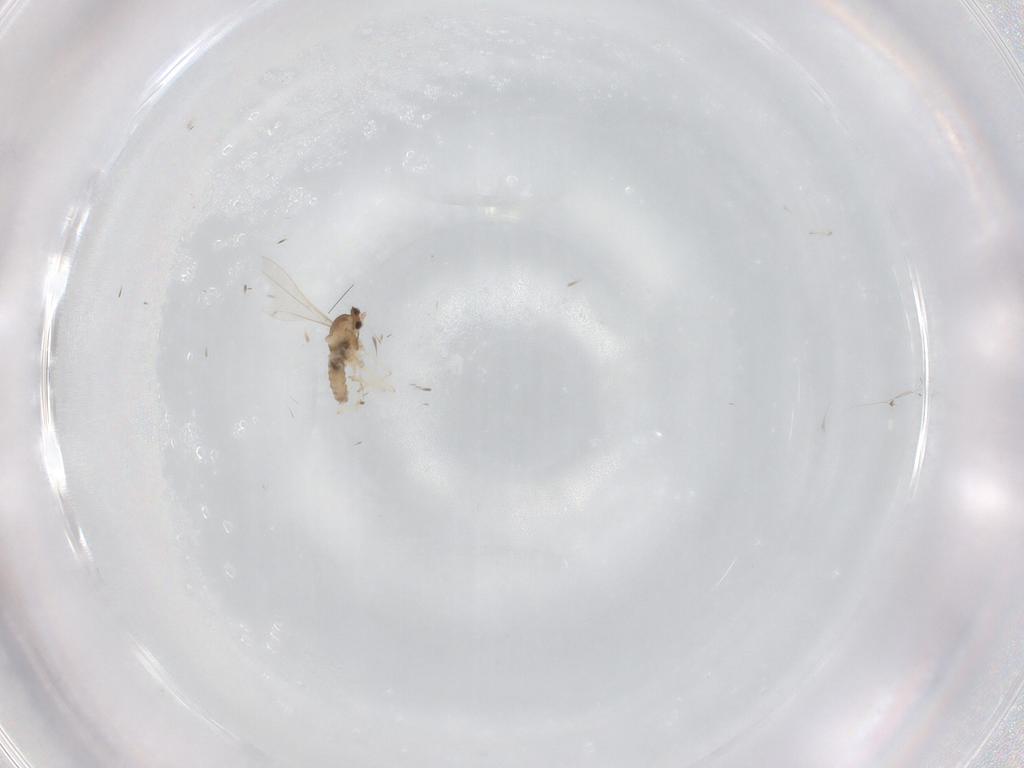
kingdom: Animalia
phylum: Arthropoda
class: Insecta
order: Diptera
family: Cecidomyiidae
